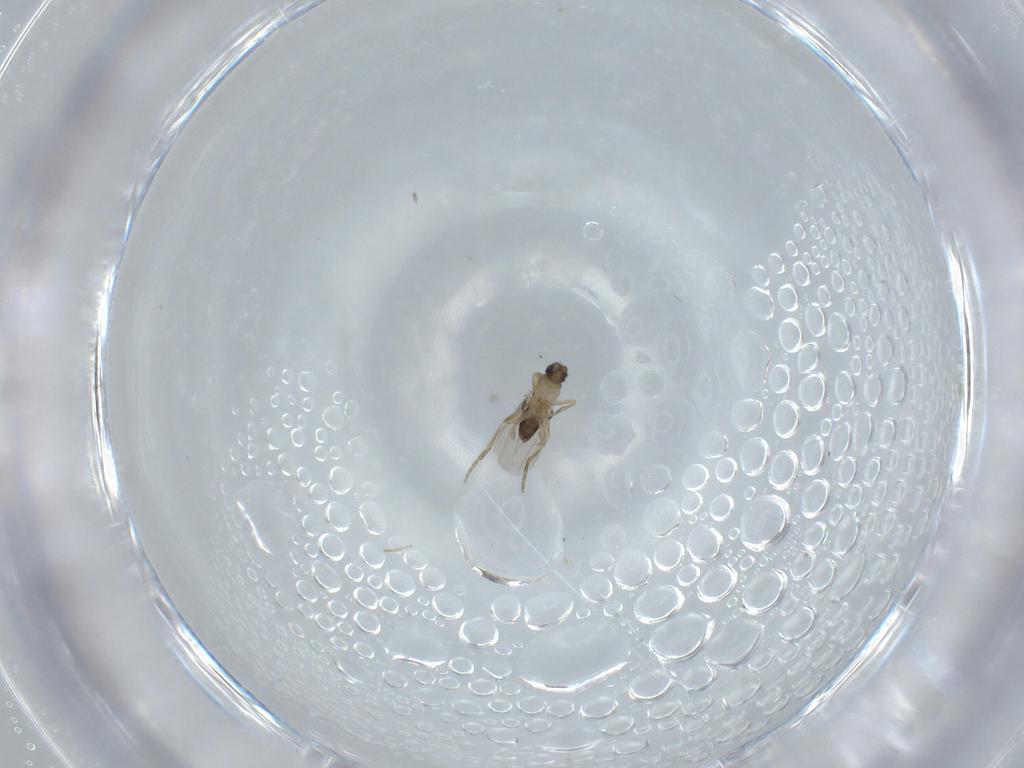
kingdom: Animalia
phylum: Arthropoda
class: Insecta
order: Diptera
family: Phoridae
